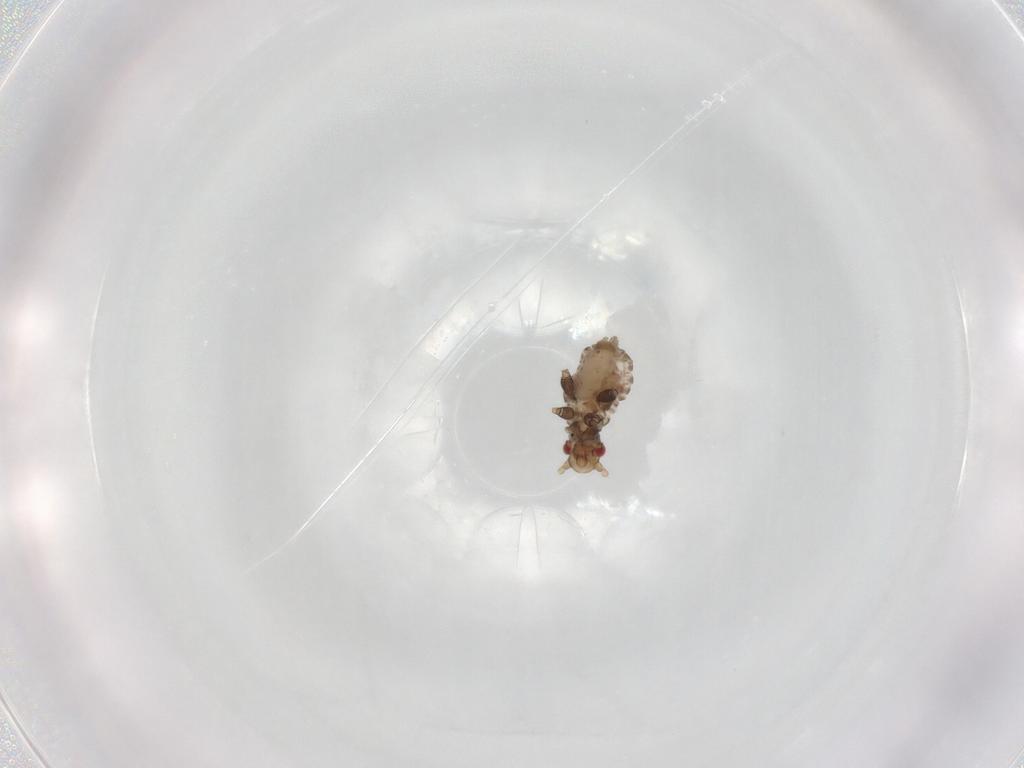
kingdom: Animalia
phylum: Arthropoda
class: Insecta
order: Hemiptera
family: Aphididae
